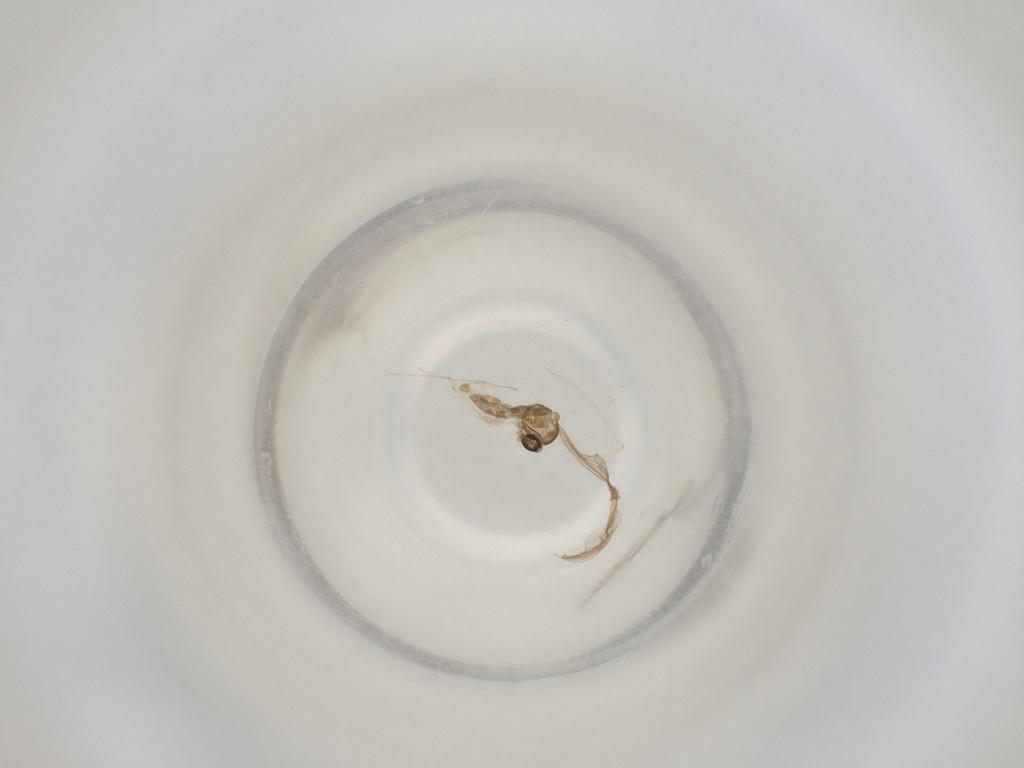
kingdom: Animalia
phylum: Arthropoda
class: Insecta
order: Diptera
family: Cecidomyiidae
